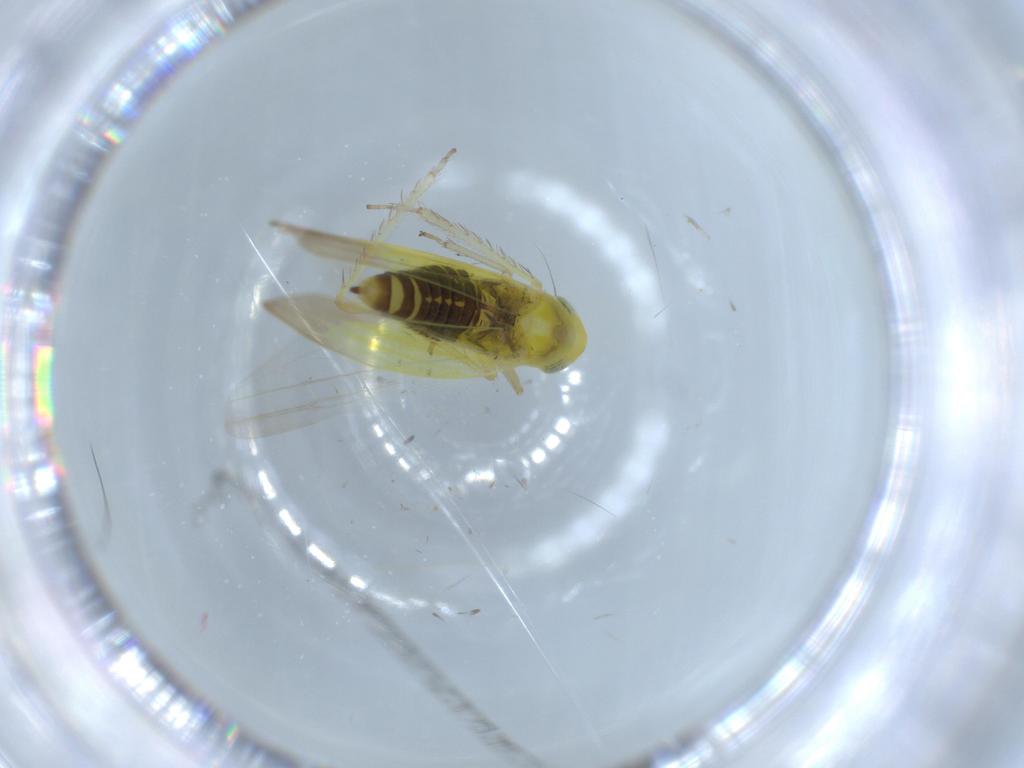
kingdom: Animalia
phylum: Arthropoda
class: Insecta
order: Hemiptera
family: Cicadellidae
